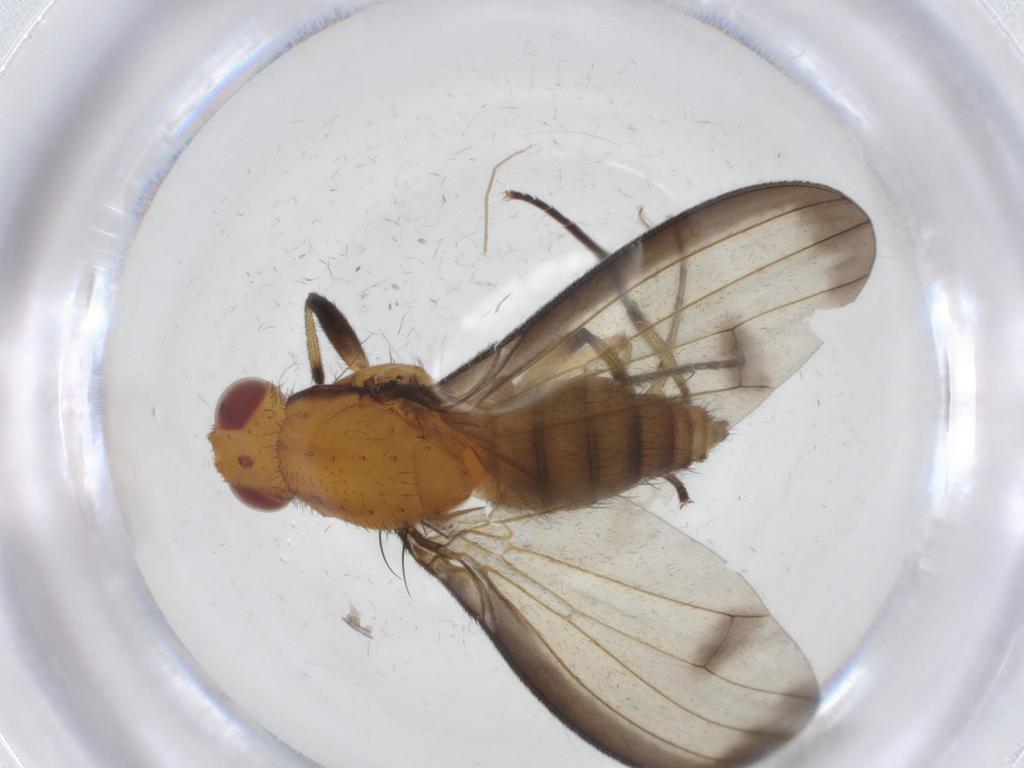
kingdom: Animalia
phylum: Arthropoda
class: Insecta
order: Diptera
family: Heleomyzidae
